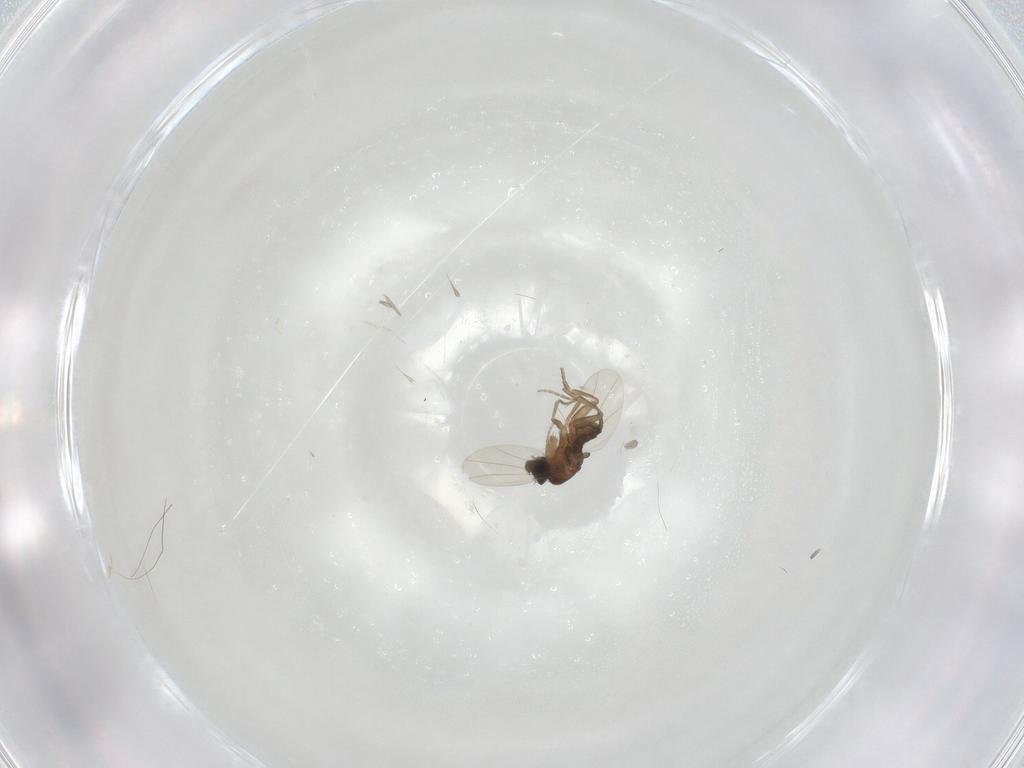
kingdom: Animalia
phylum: Arthropoda
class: Insecta
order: Diptera
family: Phoridae
